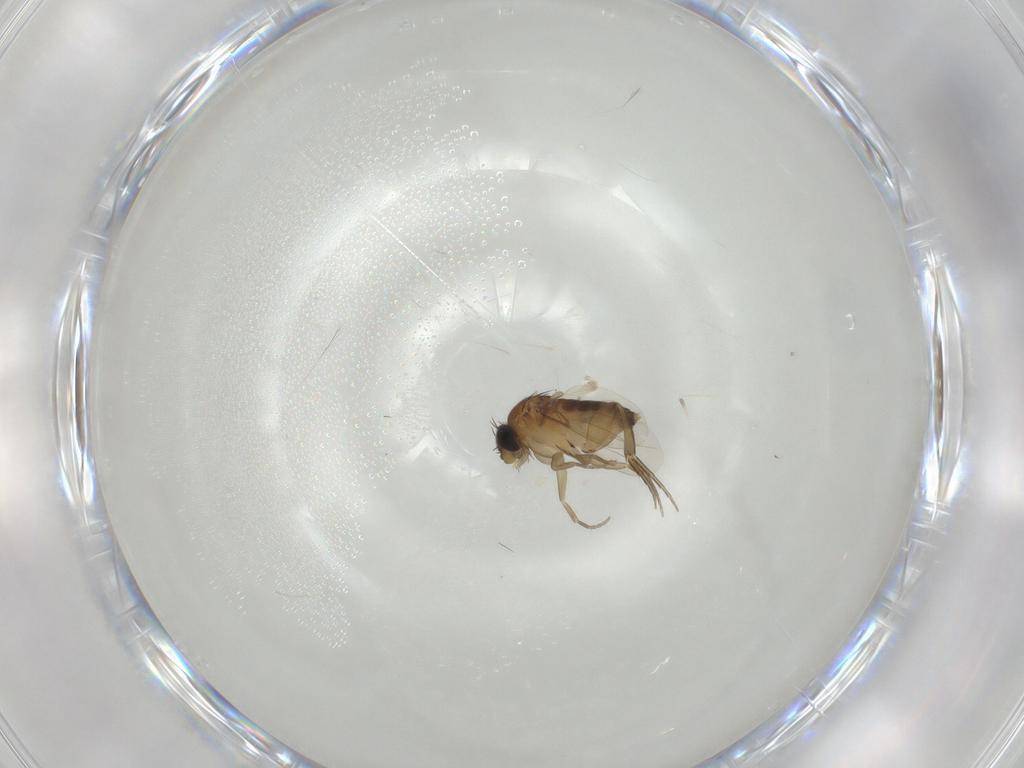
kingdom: Animalia
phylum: Arthropoda
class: Insecta
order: Diptera
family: Phoridae
